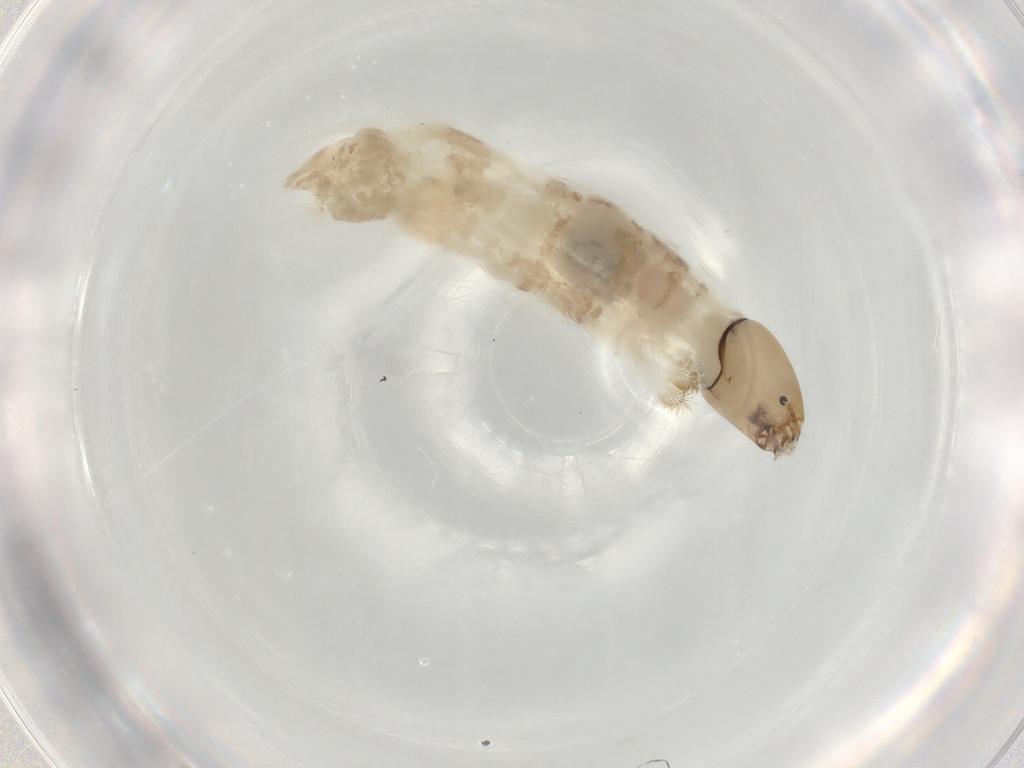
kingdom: Animalia
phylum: Arthropoda
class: Insecta
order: Diptera
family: Chironomidae
